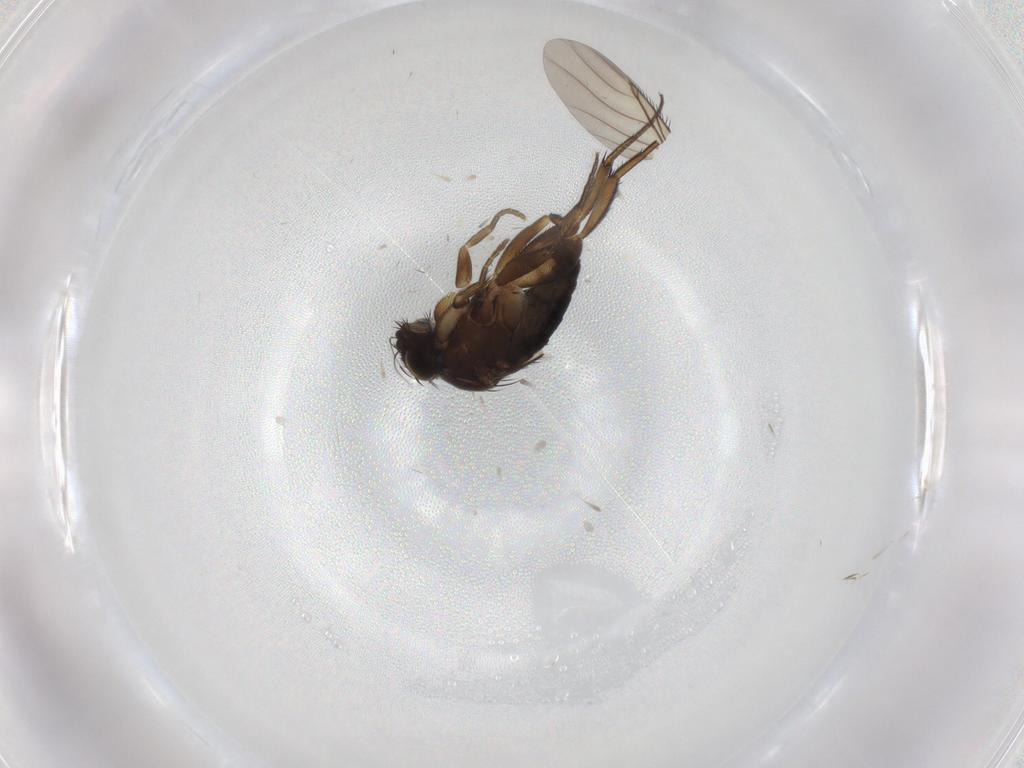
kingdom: Animalia
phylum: Arthropoda
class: Insecta
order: Diptera
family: Phoridae
